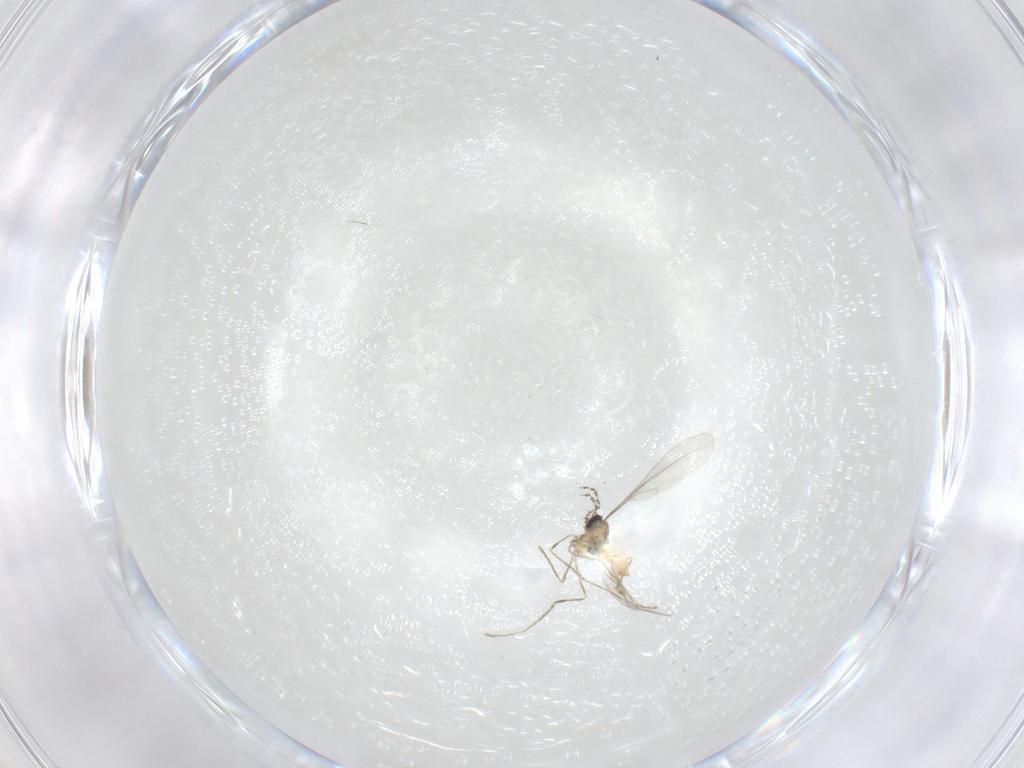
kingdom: Animalia
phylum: Arthropoda
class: Insecta
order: Diptera
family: Cecidomyiidae
